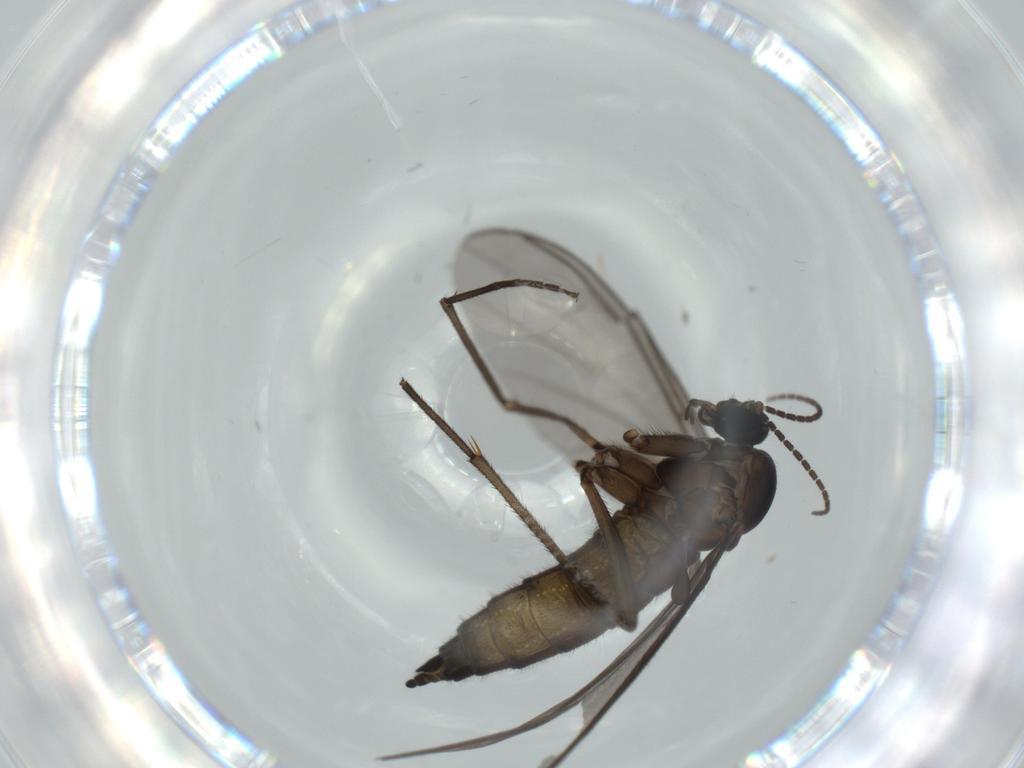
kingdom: Animalia
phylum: Arthropoda
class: Insecta
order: Diptera
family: Sciaridae
